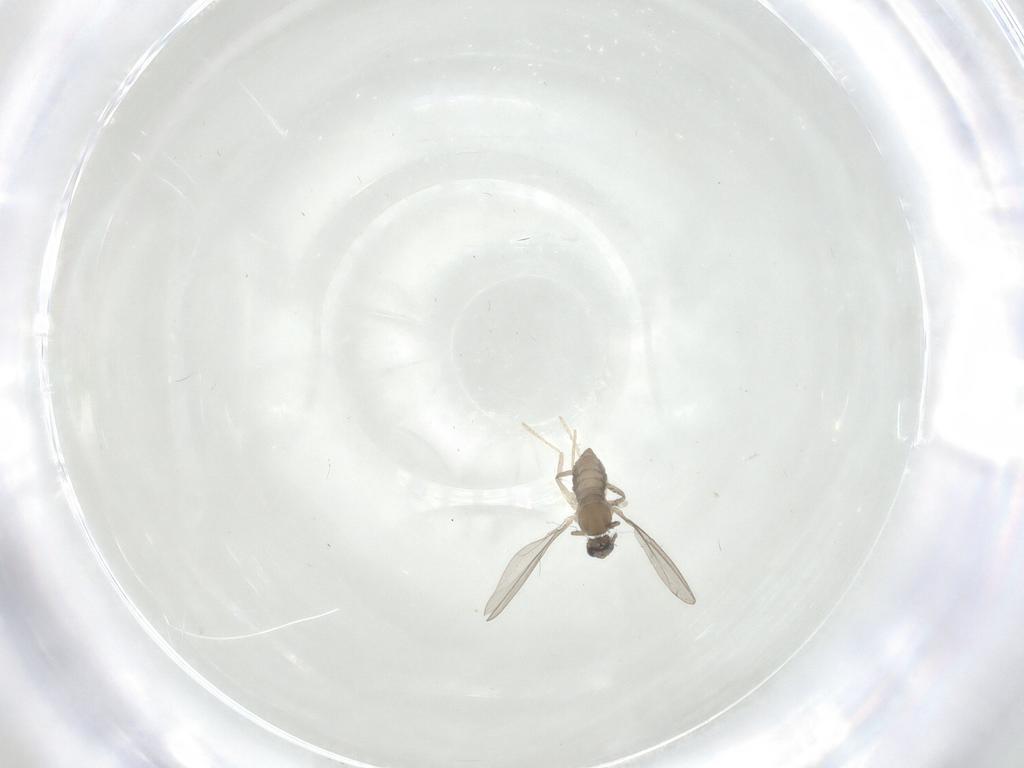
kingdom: Animalia
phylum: Arthropoda
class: Insecta
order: Diptera
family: Cecidomyiidae
